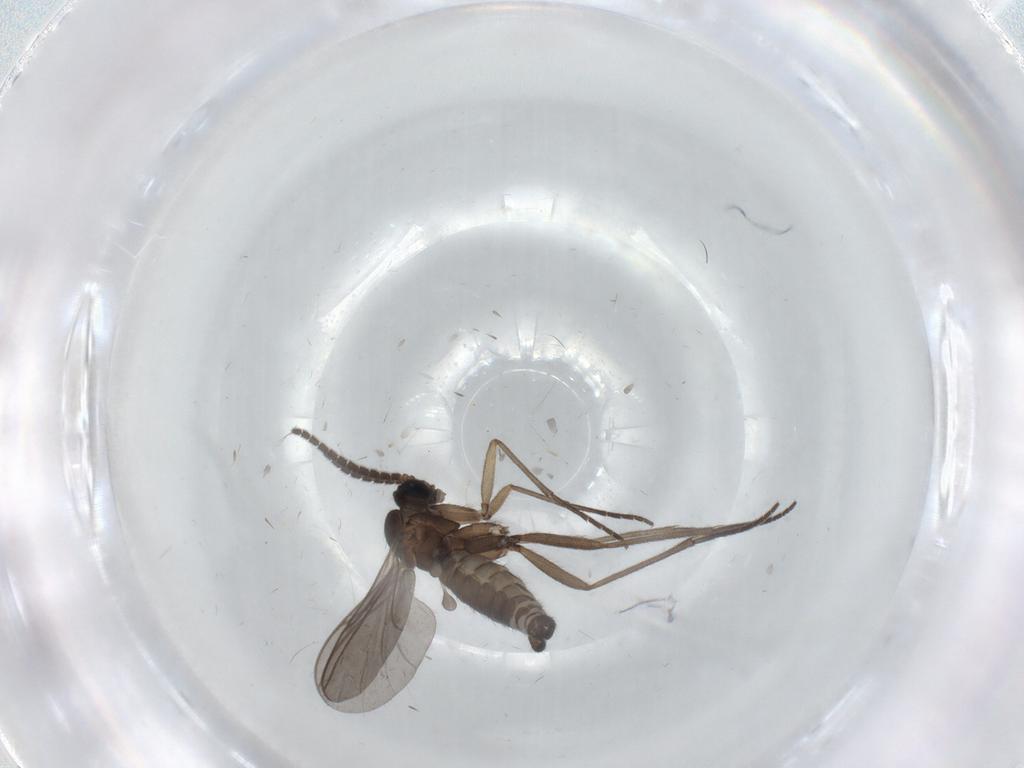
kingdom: Animalia
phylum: Arthropoda
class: Insecta
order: Diptera
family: Sciaridae
